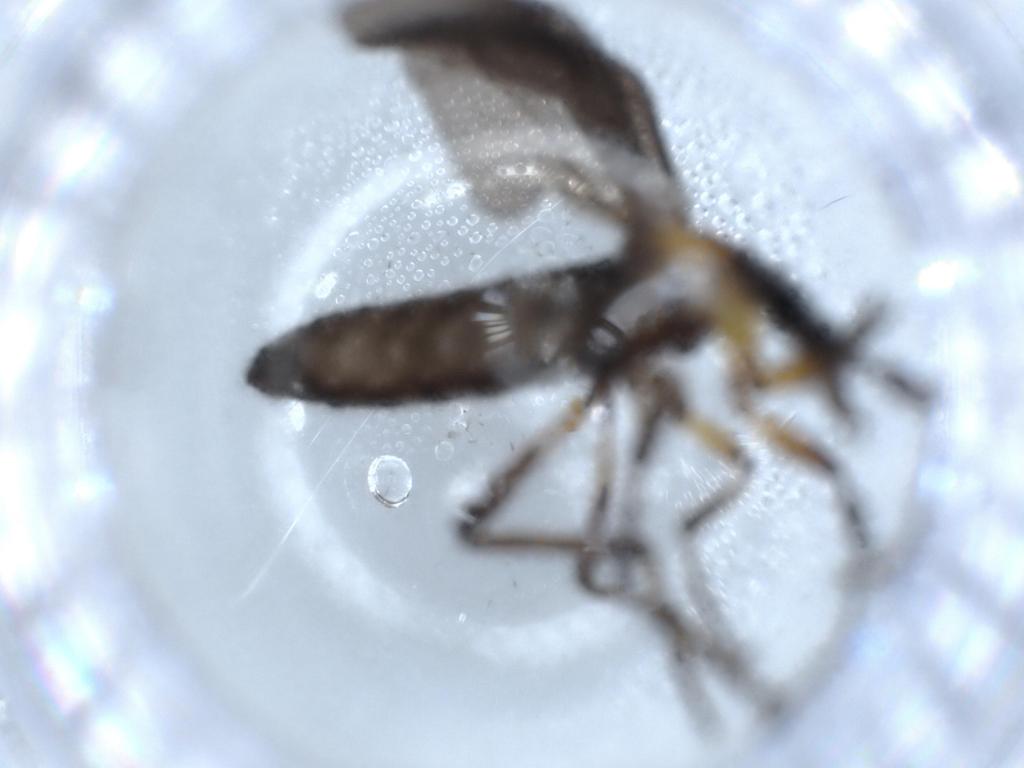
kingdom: Animalia
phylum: Arthropoda
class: Insecta
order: Diptera
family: Bibionidae
